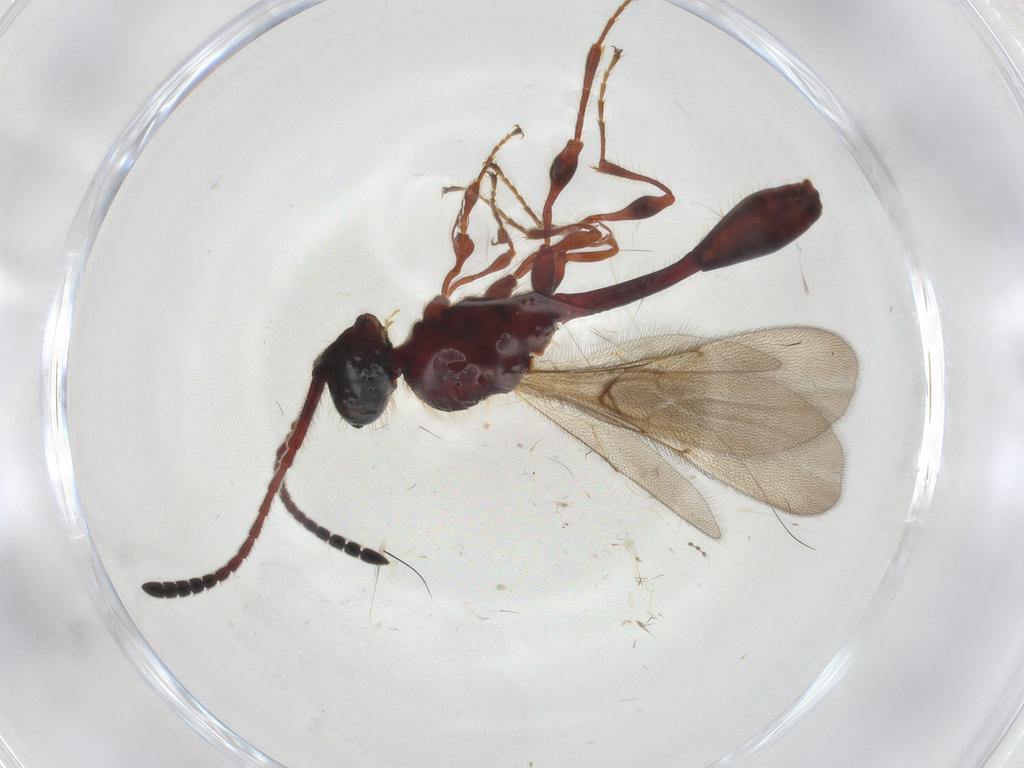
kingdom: Animalia
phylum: Arthropoda
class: Insecta
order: Hymenoptera
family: Diapriidae
